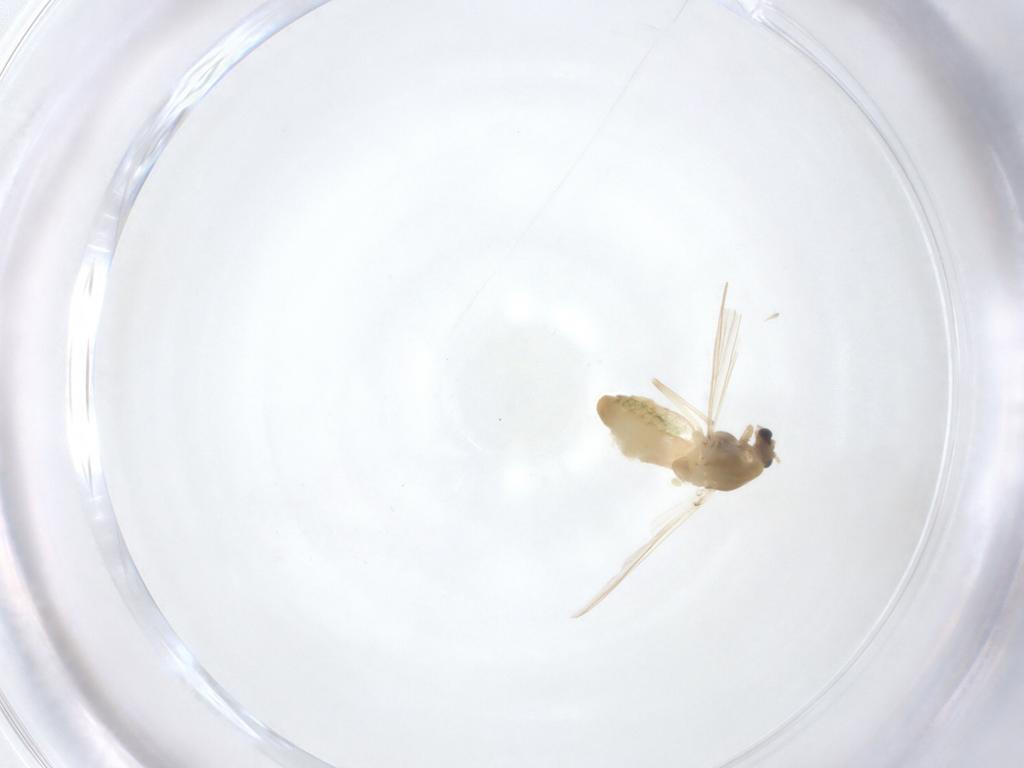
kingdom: Animalia
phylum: Arthropoda
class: Insecta
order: Diptera
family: Chironomidae
